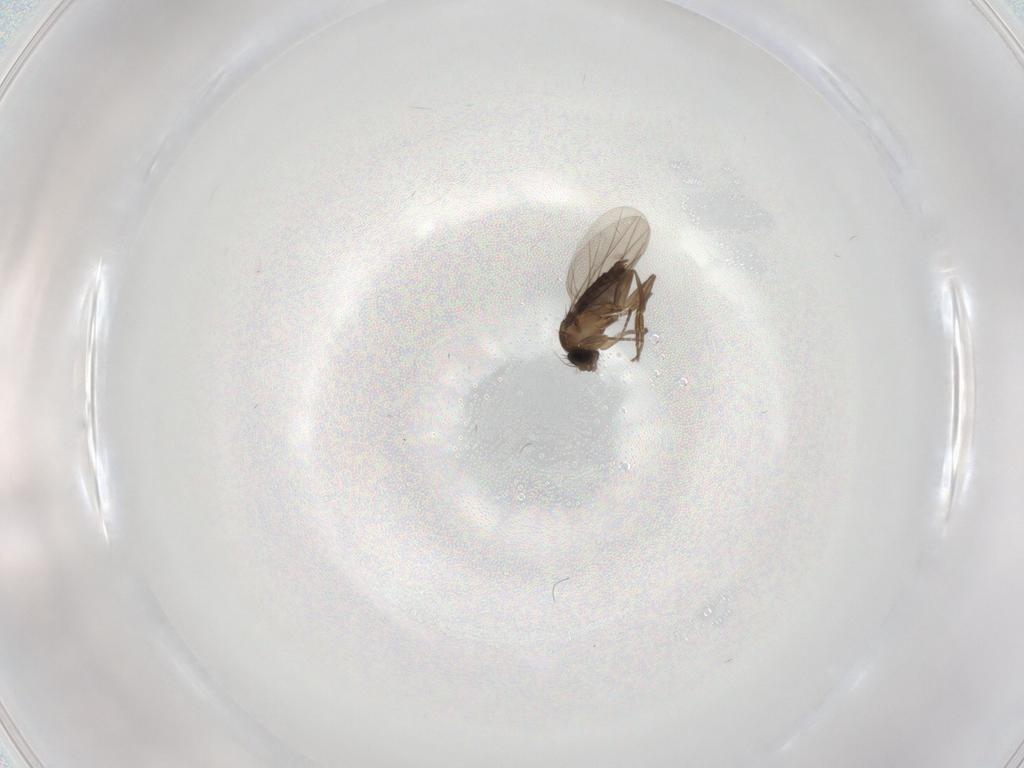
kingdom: Animalia
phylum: Arthropoda
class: Insecta
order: Diptera
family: Phoridae
